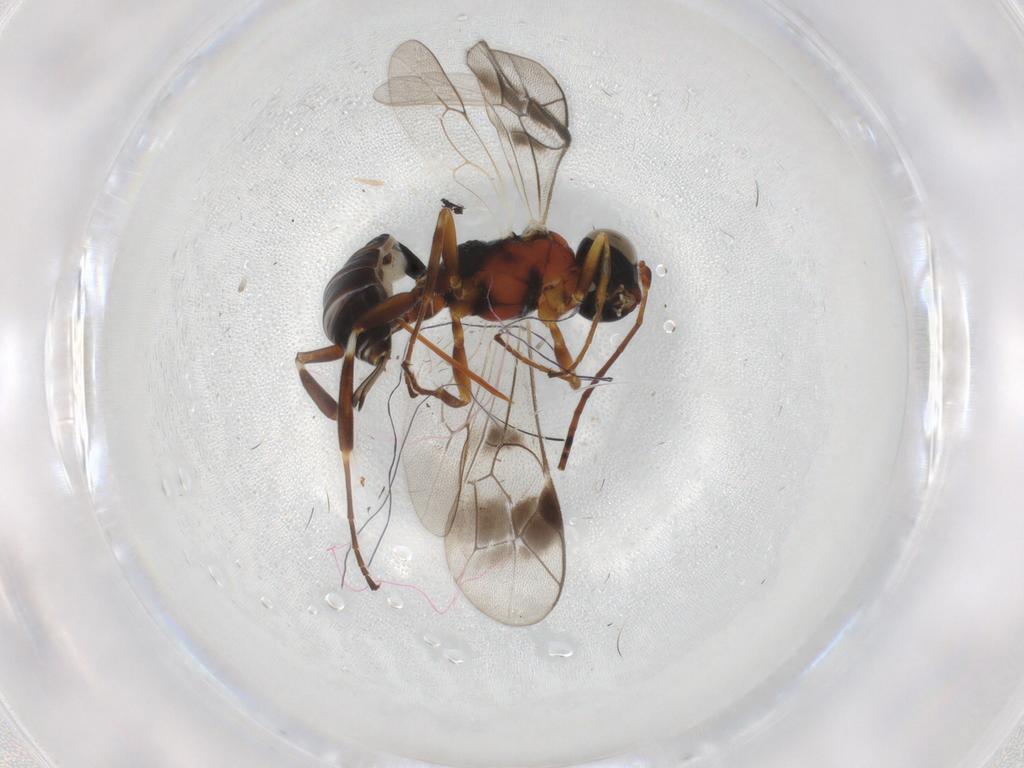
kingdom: Animalia
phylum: Arthropoda
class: Insecta
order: Hymenoptera
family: Ichneumonidae
